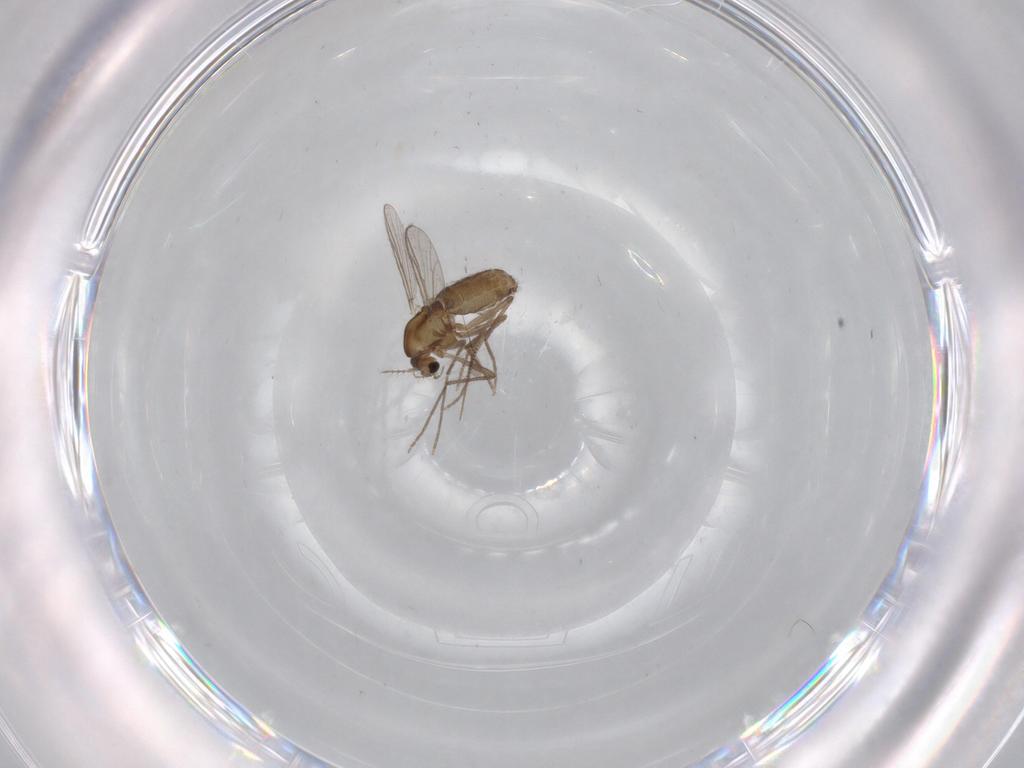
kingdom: Animalia
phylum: Arthropoda
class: Insecta
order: Diptera
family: Chironomidae
